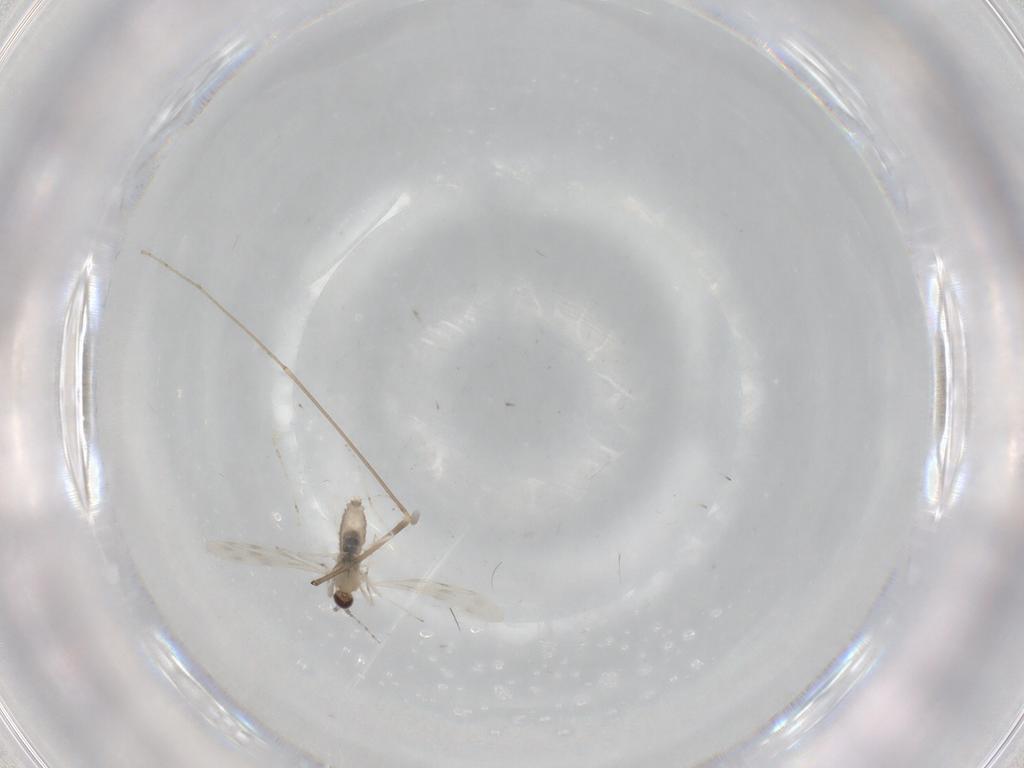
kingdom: Animalia
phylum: Arthropoda
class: Insecta
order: Diptera
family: Limoniidae
